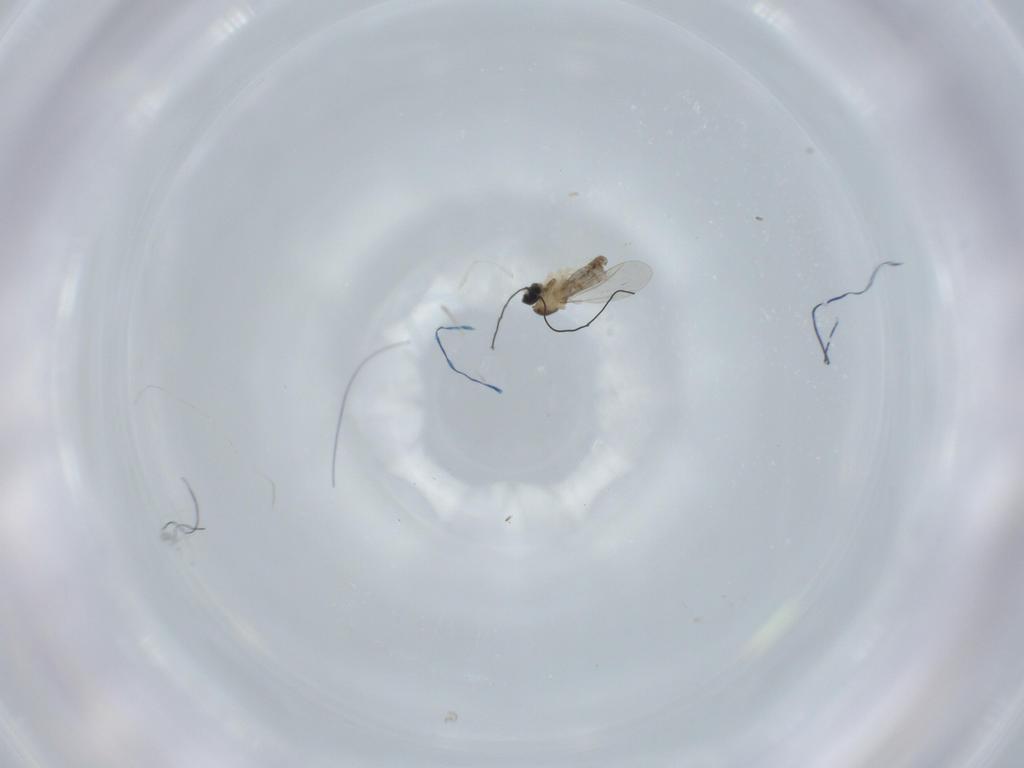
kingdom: Animalia
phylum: Arthropoda
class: Insecta
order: Diptera
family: Cecidomyiidae
